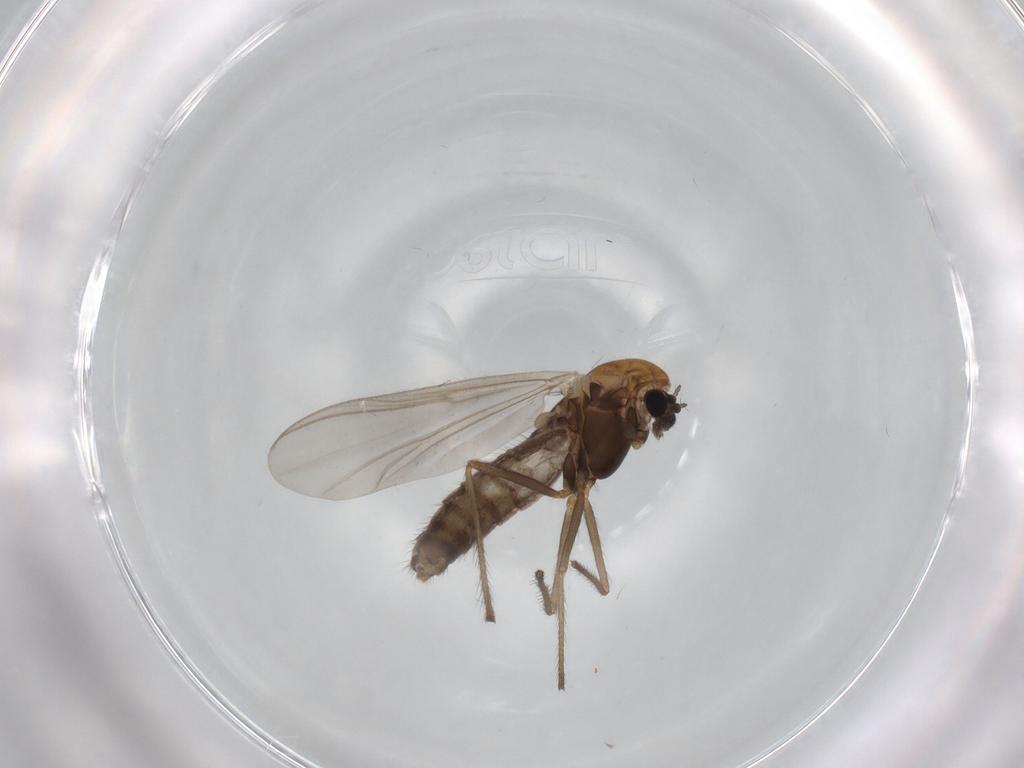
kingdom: Animalia
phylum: Arthropoda
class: Insecta
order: Diptera
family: Chironomidae
